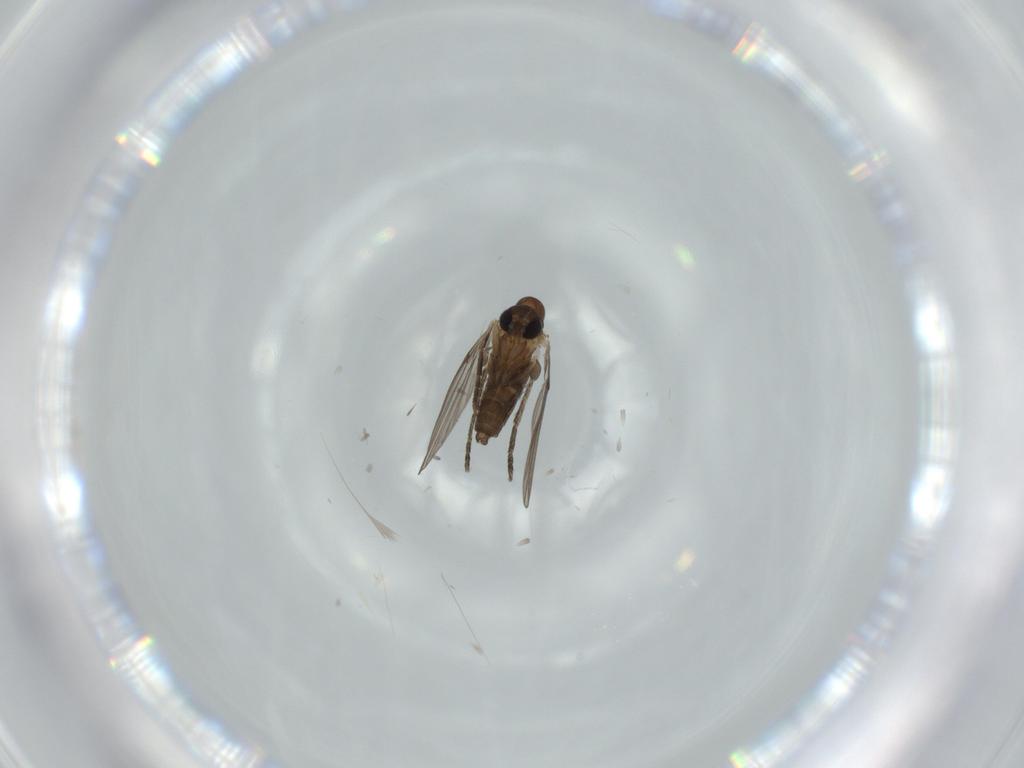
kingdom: Animalia
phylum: Arthropoda
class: Insecta
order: Diptera
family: Psychodidae
